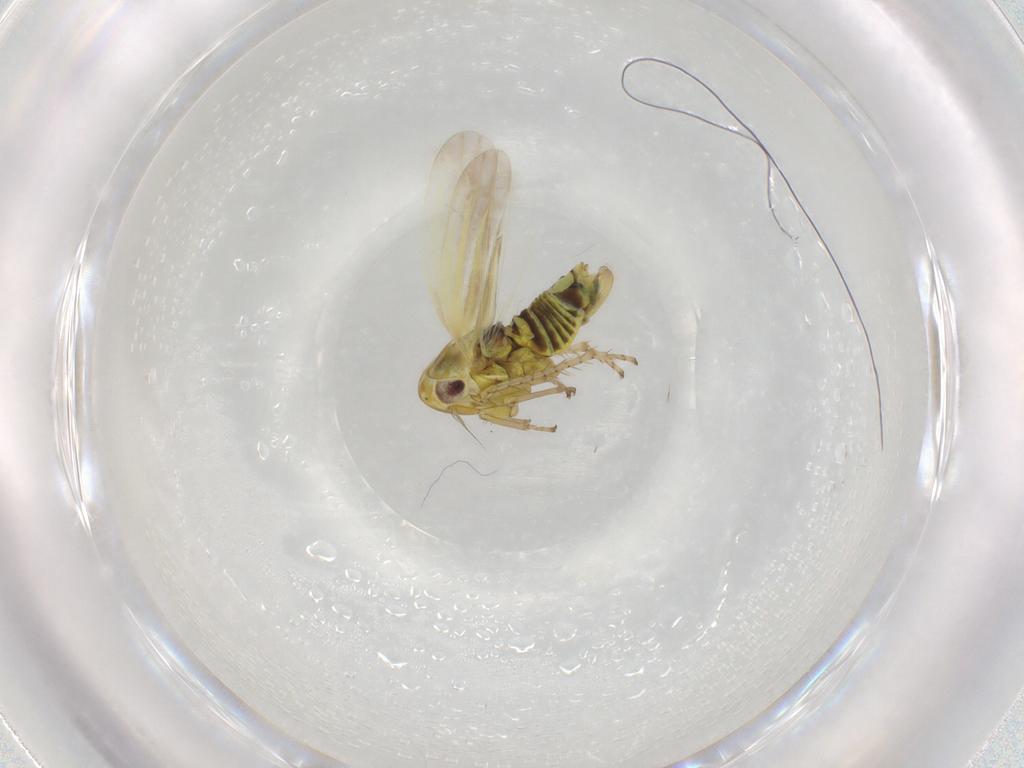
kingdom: Animalia
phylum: Arthropoda
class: Insecta
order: Hemiptera
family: Cicadellidae
